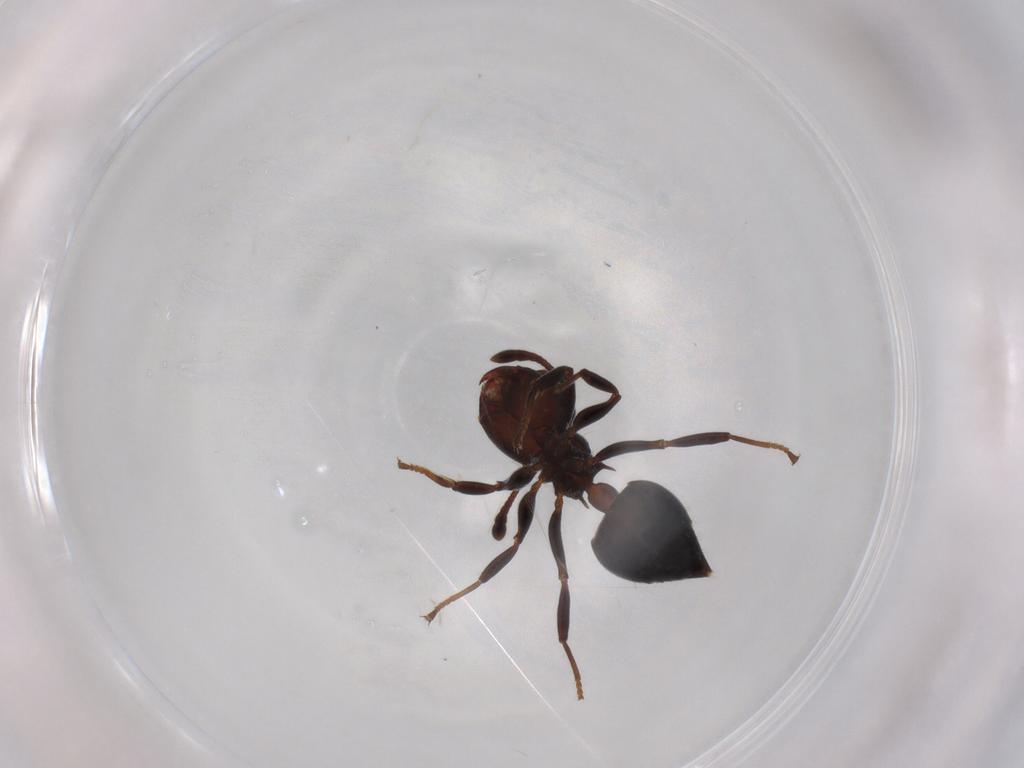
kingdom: Animalia
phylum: Arthropoda
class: Insecta
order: Hymenoptera
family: Formicidae
